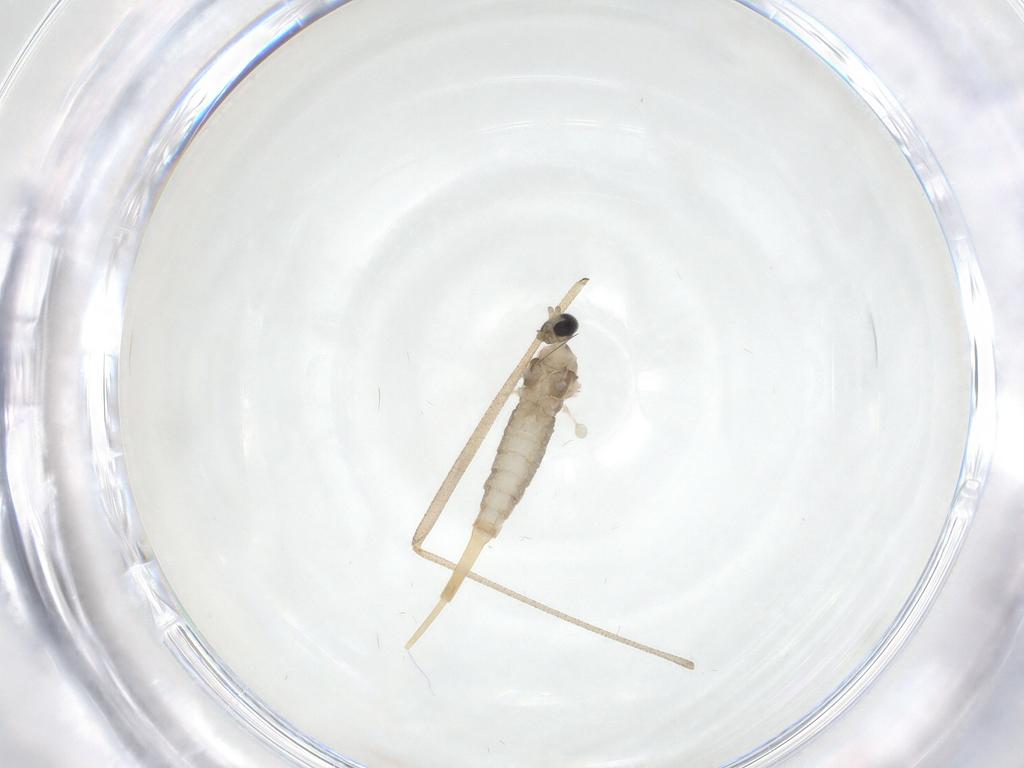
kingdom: Animalia
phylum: Arthropoda
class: Insecta
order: Diptera
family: Cecidomyiidae
